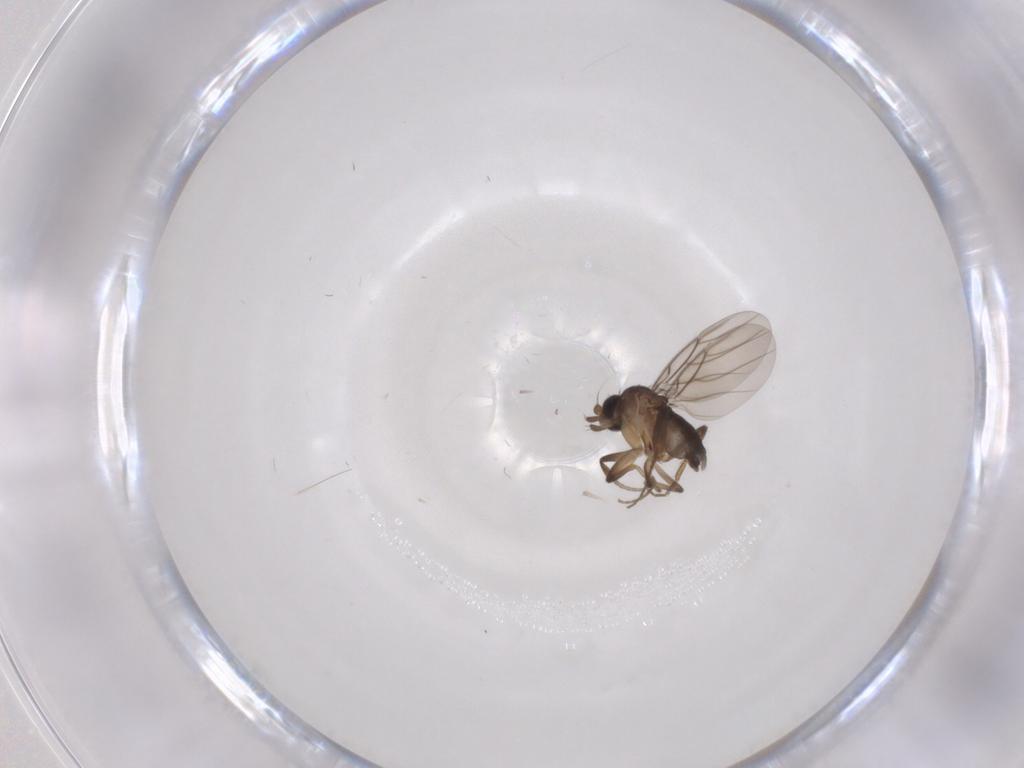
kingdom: Animalia
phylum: Arthropoda
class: Insecta
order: Diptera
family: Phoridae
